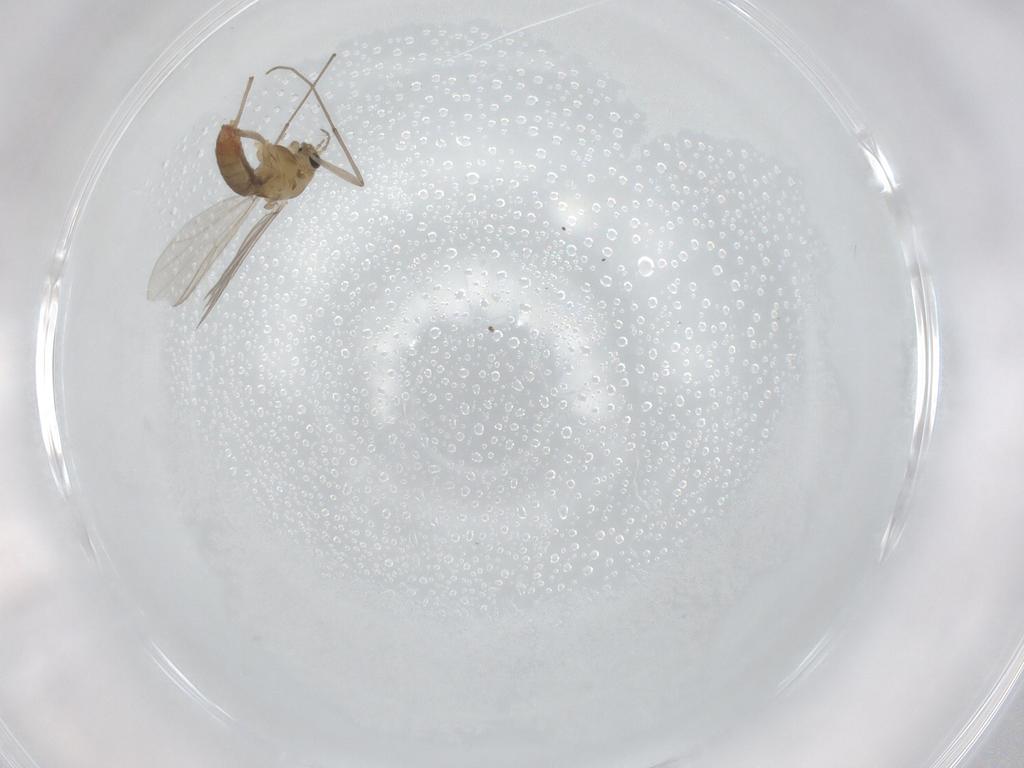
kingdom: Animalia
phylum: Arthropoda
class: Insecta
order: Diptera
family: Chironomidae
